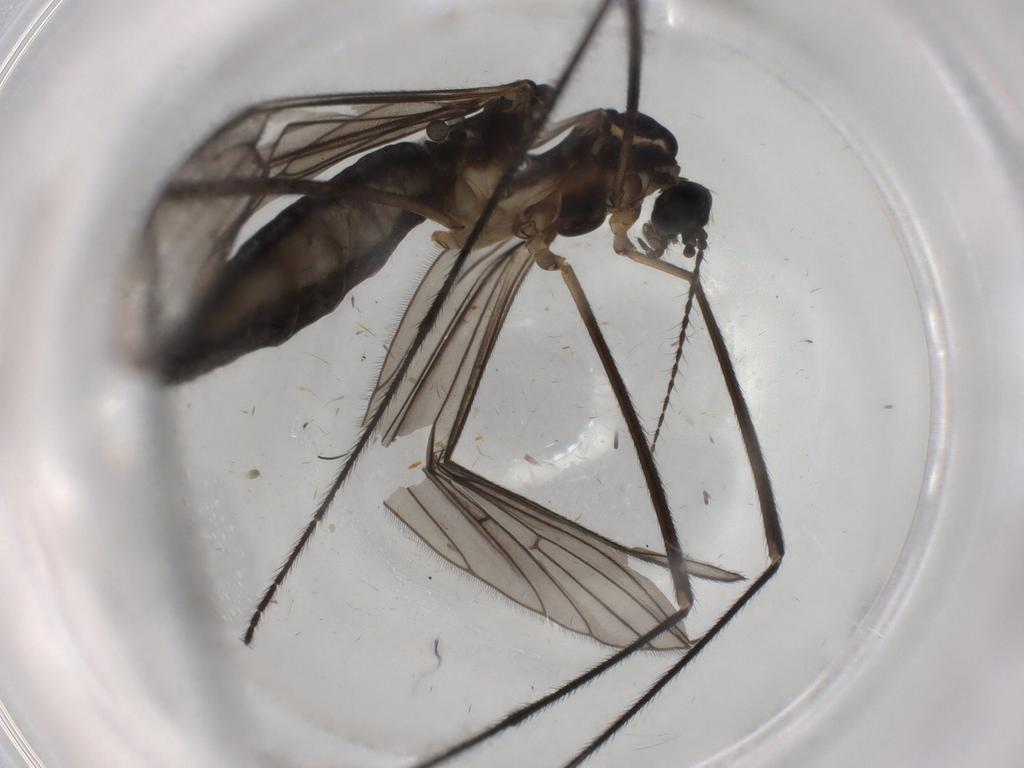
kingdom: Animalia
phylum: Arthropoda
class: Insecta
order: Diptera
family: Limoniidae
